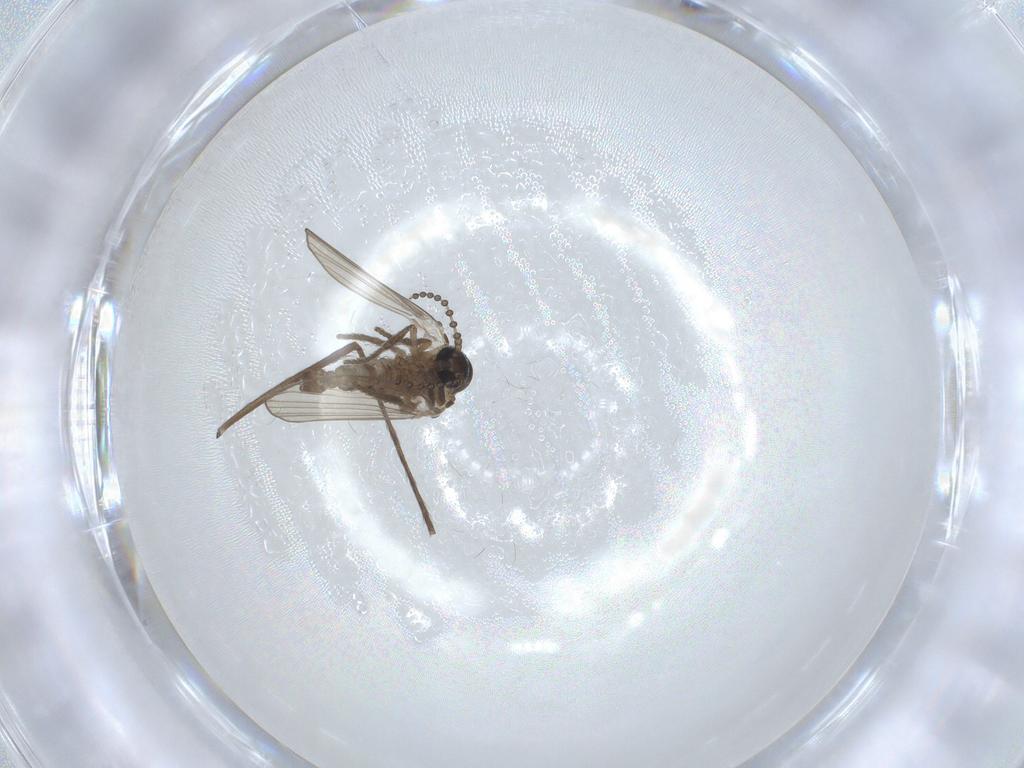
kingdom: Animalia
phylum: Arthropoda
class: Insecta
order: Diptera
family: Psychodidae
